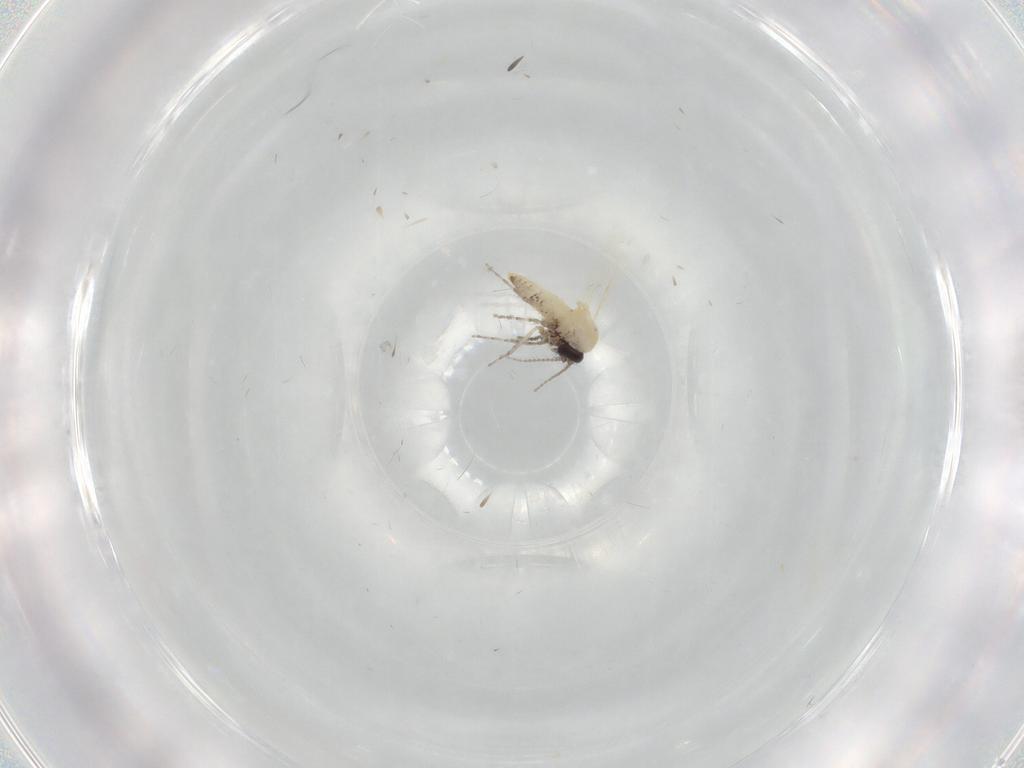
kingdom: Animalia
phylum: Arthropoda
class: Insecta
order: Diptera
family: Ceratopogonidae
